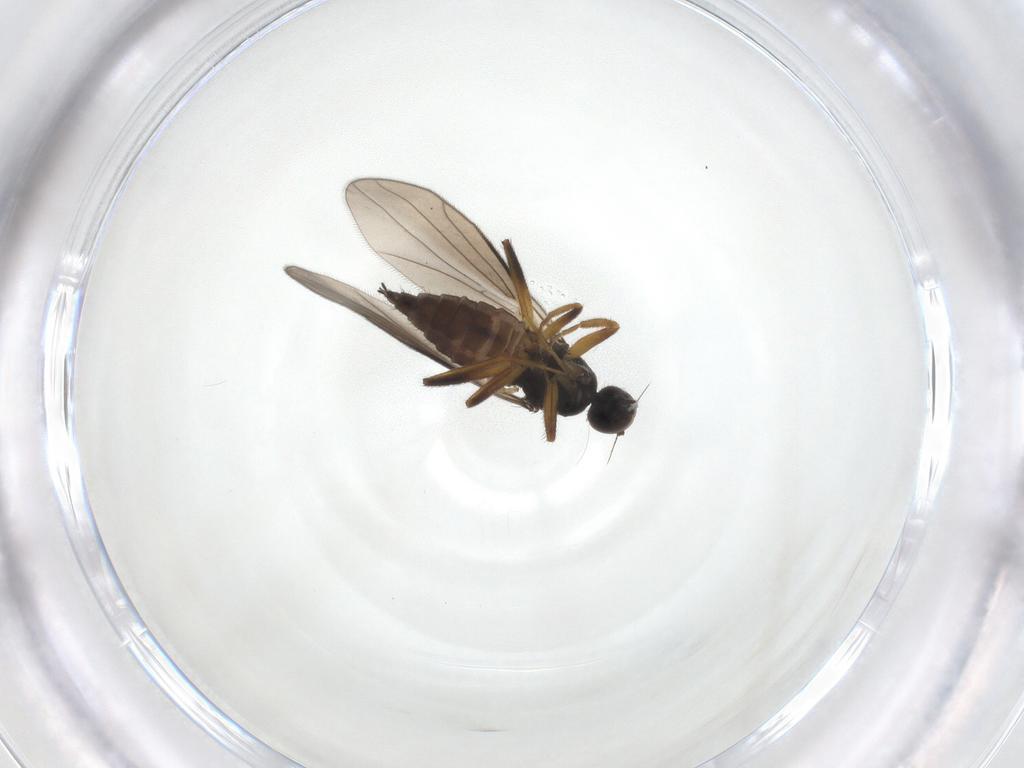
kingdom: Animalia
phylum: Arthropoda
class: Insecta
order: Diptera
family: Hybotidae
